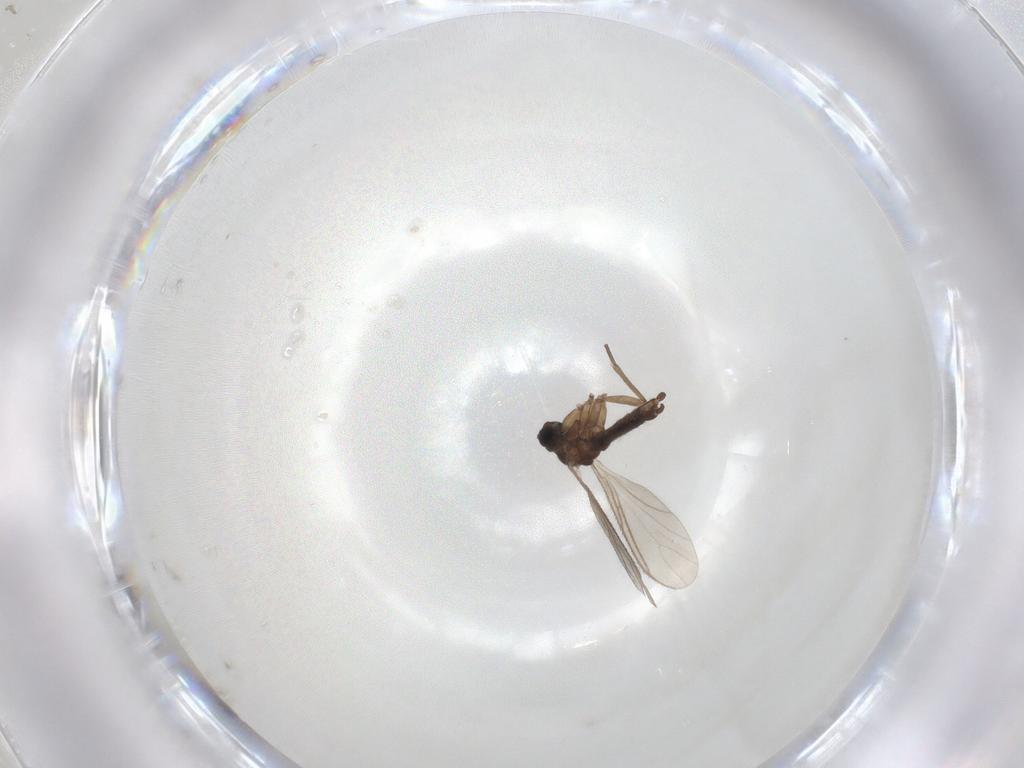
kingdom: Animalia
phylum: Arthropoda
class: Insecta
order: Diptera
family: Sciaridae
